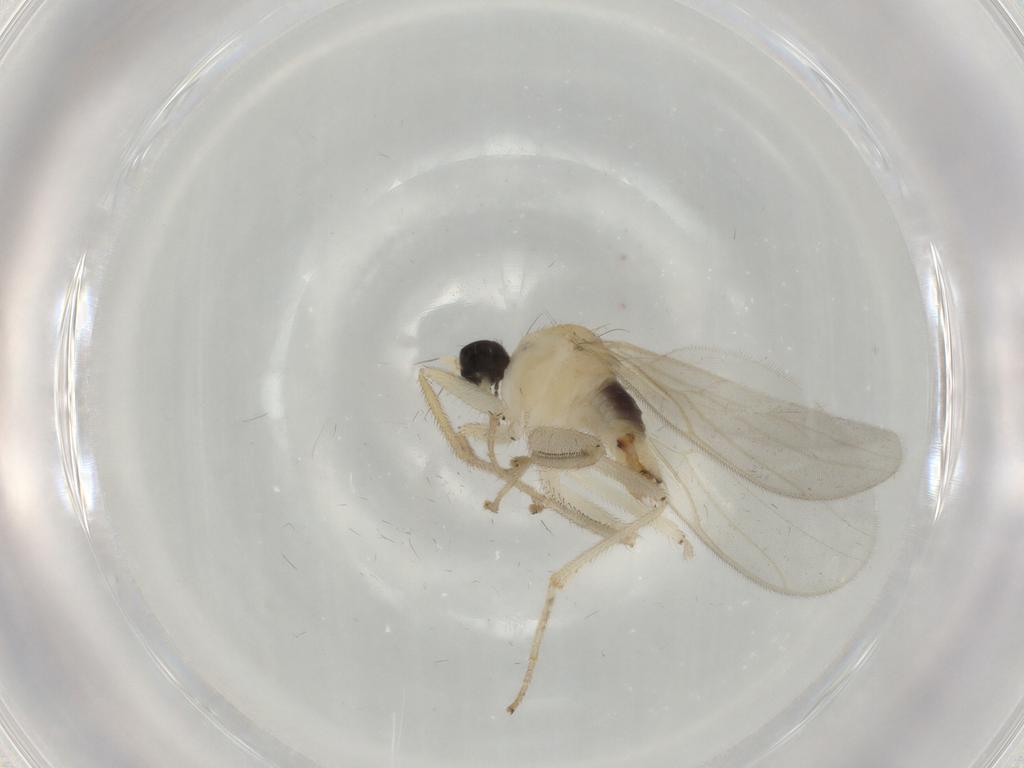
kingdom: Animalia
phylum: Arthropoda
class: Insecta
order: Diptera
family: Hybotidae
